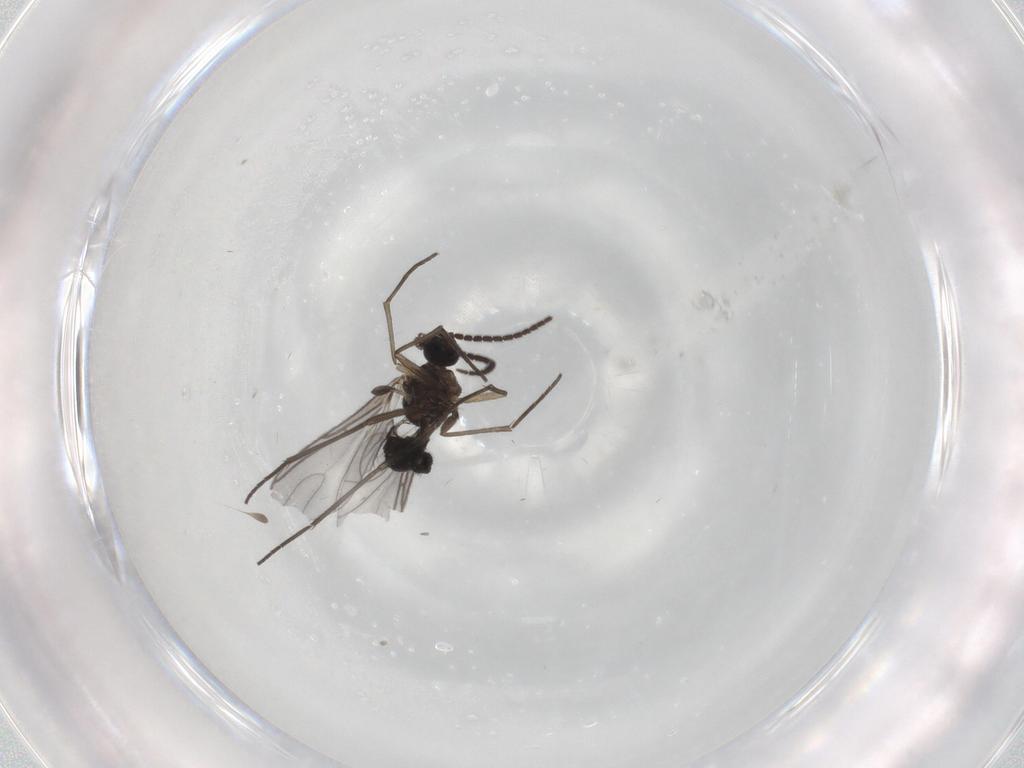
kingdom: Animalia
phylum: Arthropoda
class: Insecta
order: Diptera
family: Sciaridae
